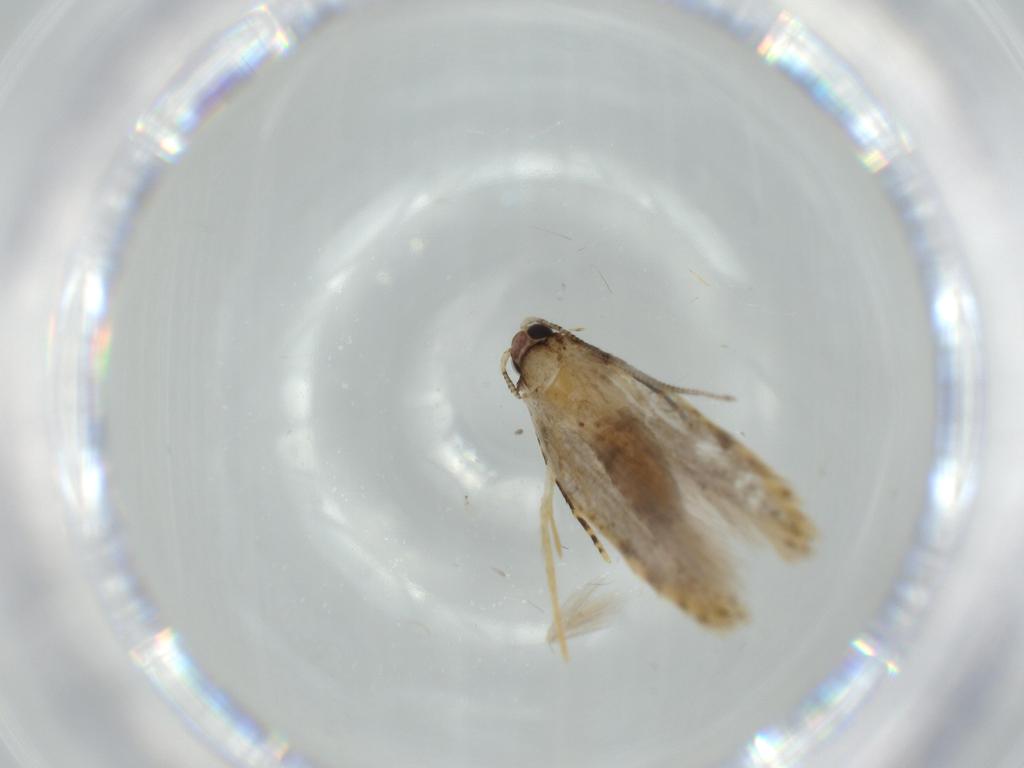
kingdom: Animalia
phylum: Arthropoda
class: Insecta
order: Lepidoptera
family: Tineidae
